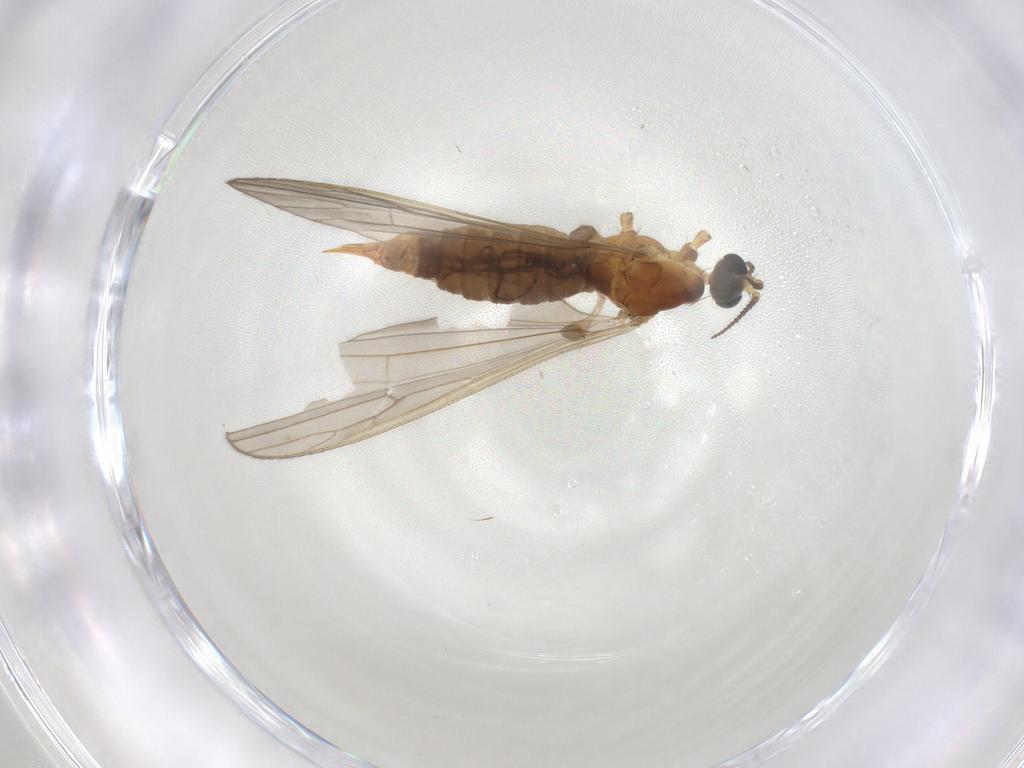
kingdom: Animalia
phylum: Arthropoda
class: Insecta
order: Diptera
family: Limoniidae
